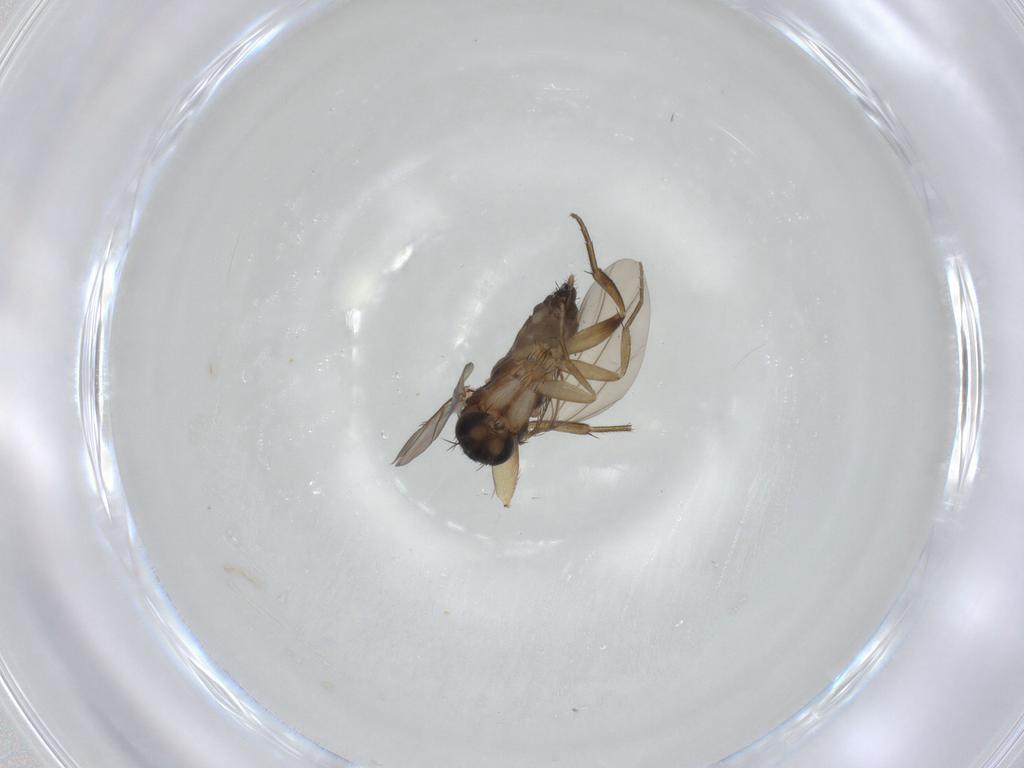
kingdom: Animalia
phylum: Arthropoda
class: Insecta
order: Diptera
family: Phoridae
